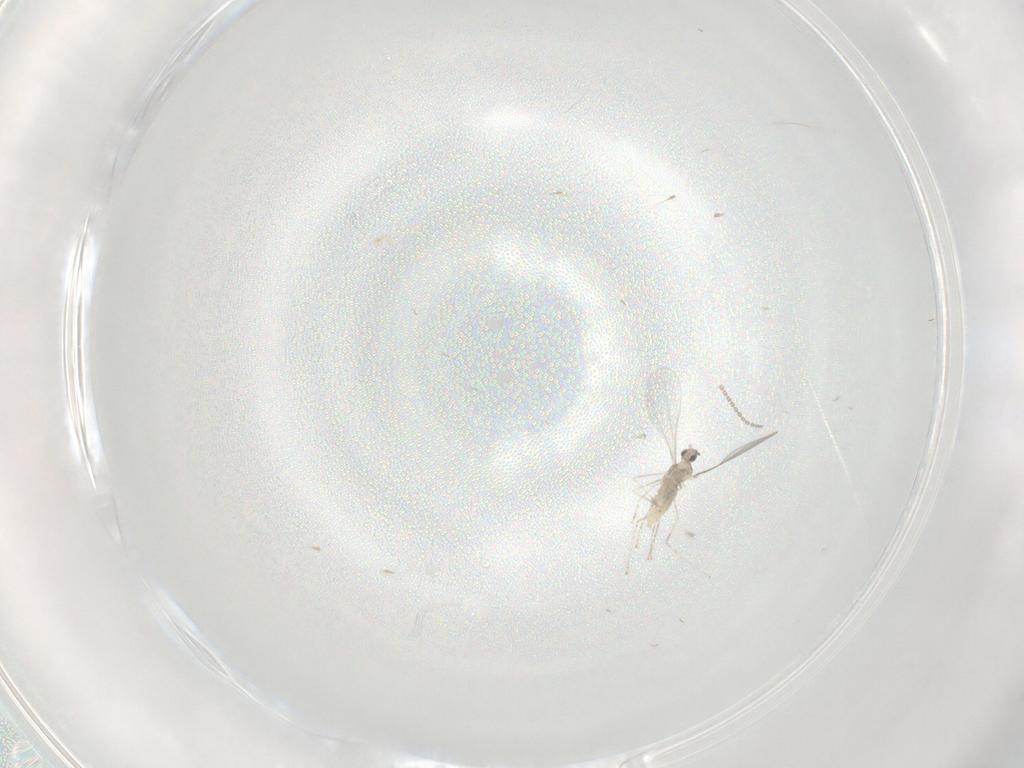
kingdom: Animalia
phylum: Arthropoda
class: Insecta
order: Diptera
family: Cecidomyiidae
